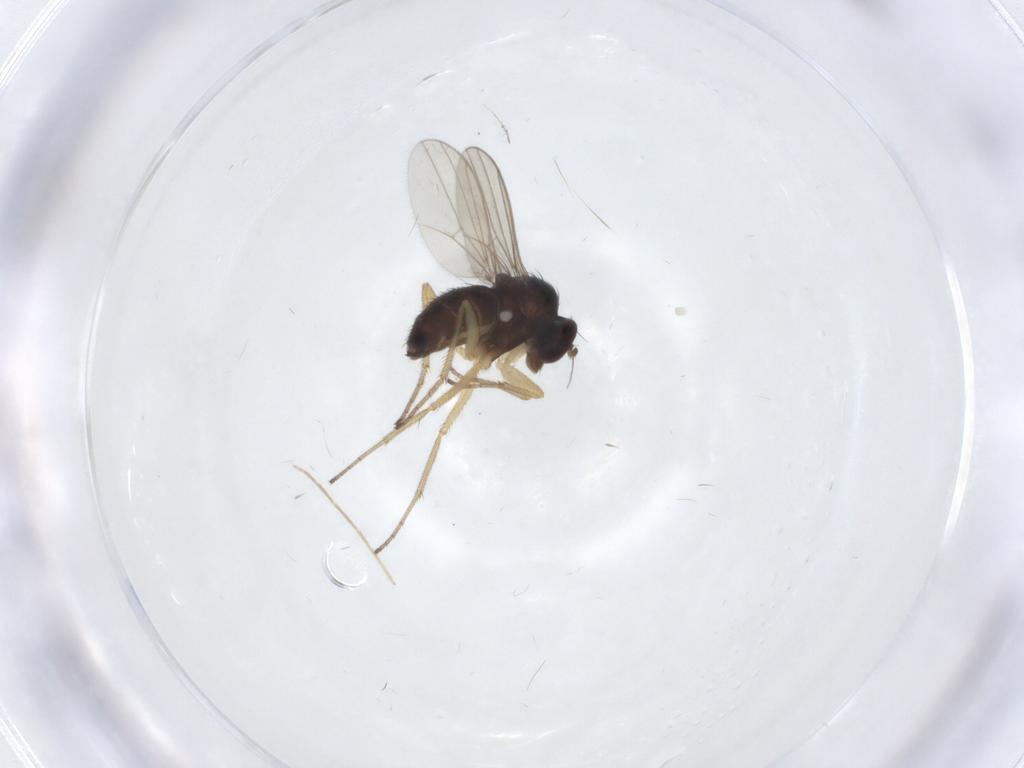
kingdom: Animalia
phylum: Arthropoda
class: Insecta
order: Diptera
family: Dolichopodidae
